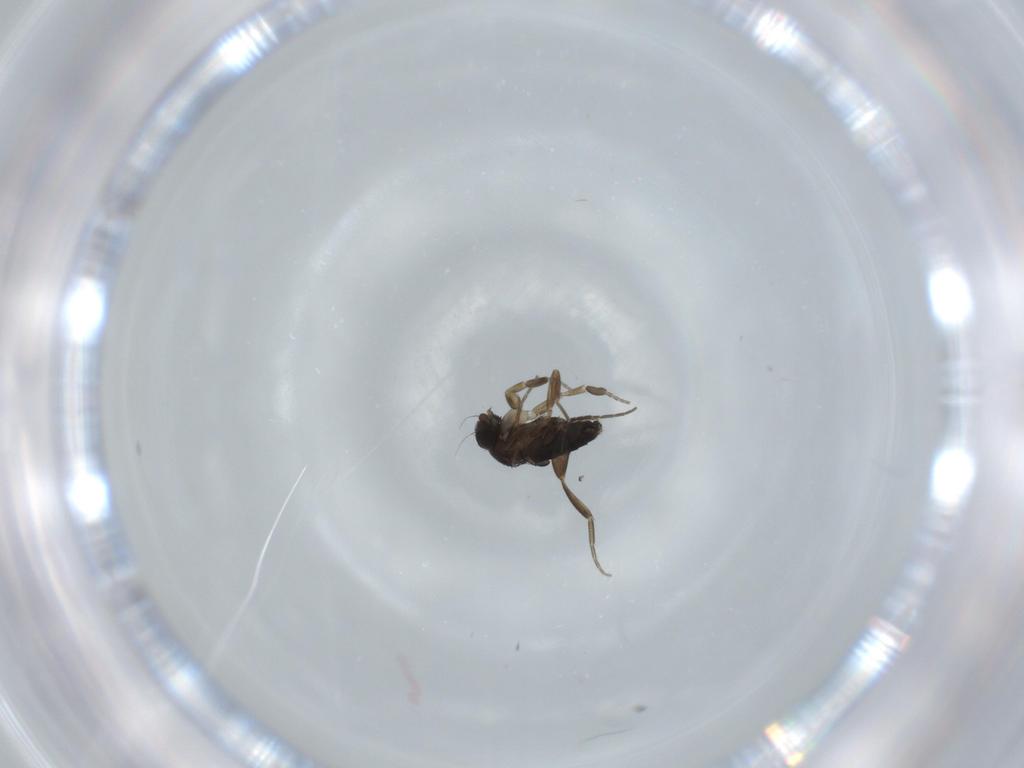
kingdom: Animalia
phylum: Arthropoda
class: Insecta
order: Diptera
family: Phoridae
